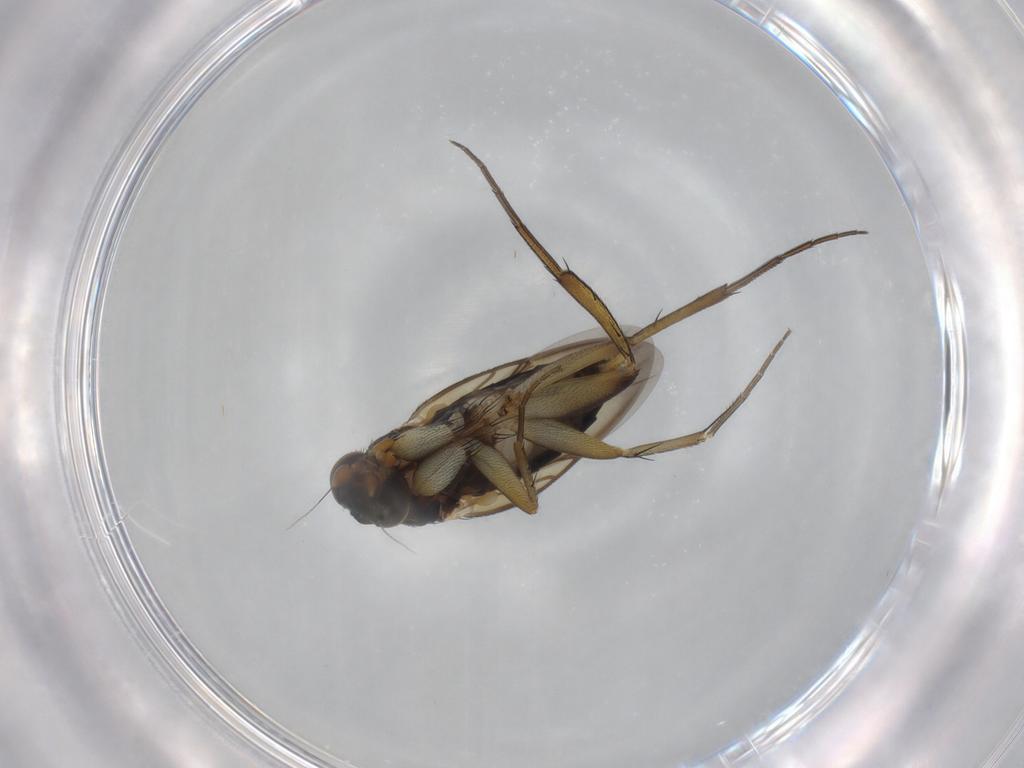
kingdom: Animalia
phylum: Arthropoda
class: Insecta
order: Diptera
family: Phoridae
